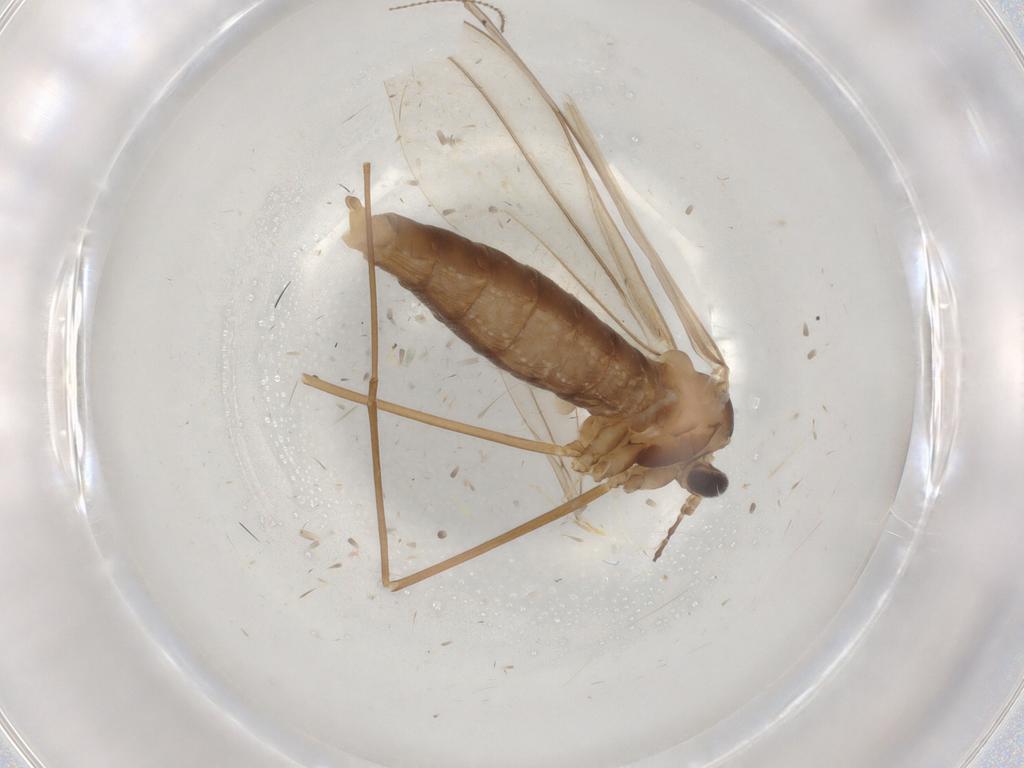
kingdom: Animalia
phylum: Arthropoda
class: Insecta
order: Diptera
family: Cecidomyiidae
